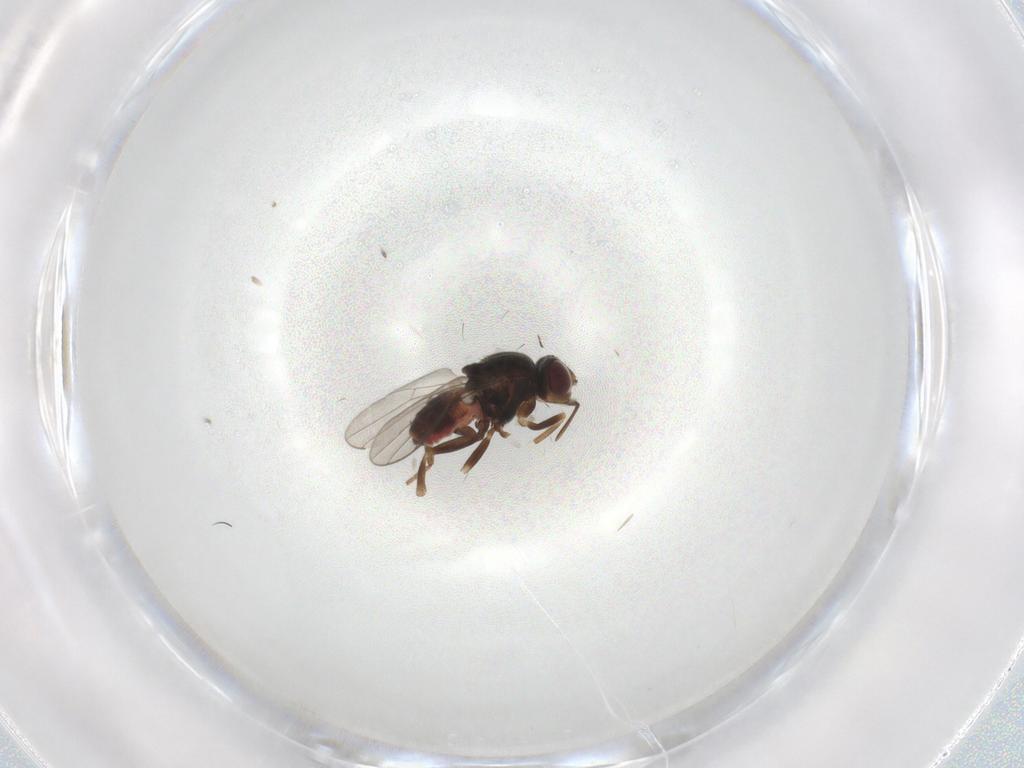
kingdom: Animalia
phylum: Arthropoda
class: Insecta
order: Diptera
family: Chloropidae
